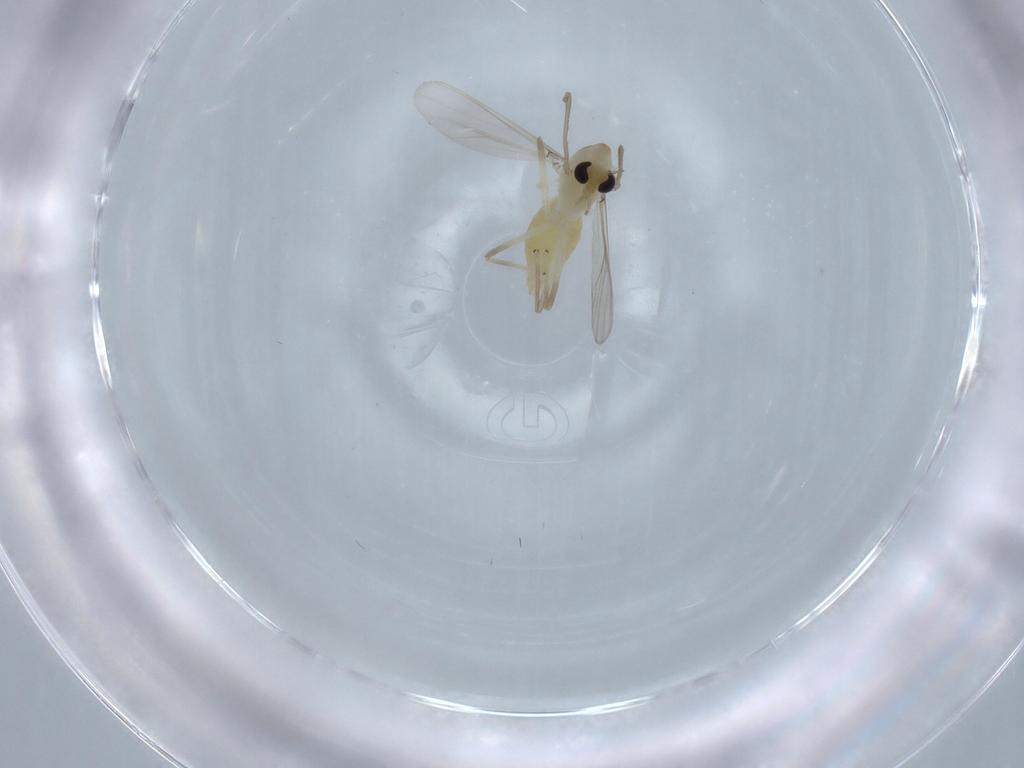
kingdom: Animalia
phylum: Arthropoda
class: Insecta
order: Diptera
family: Chironomidae
